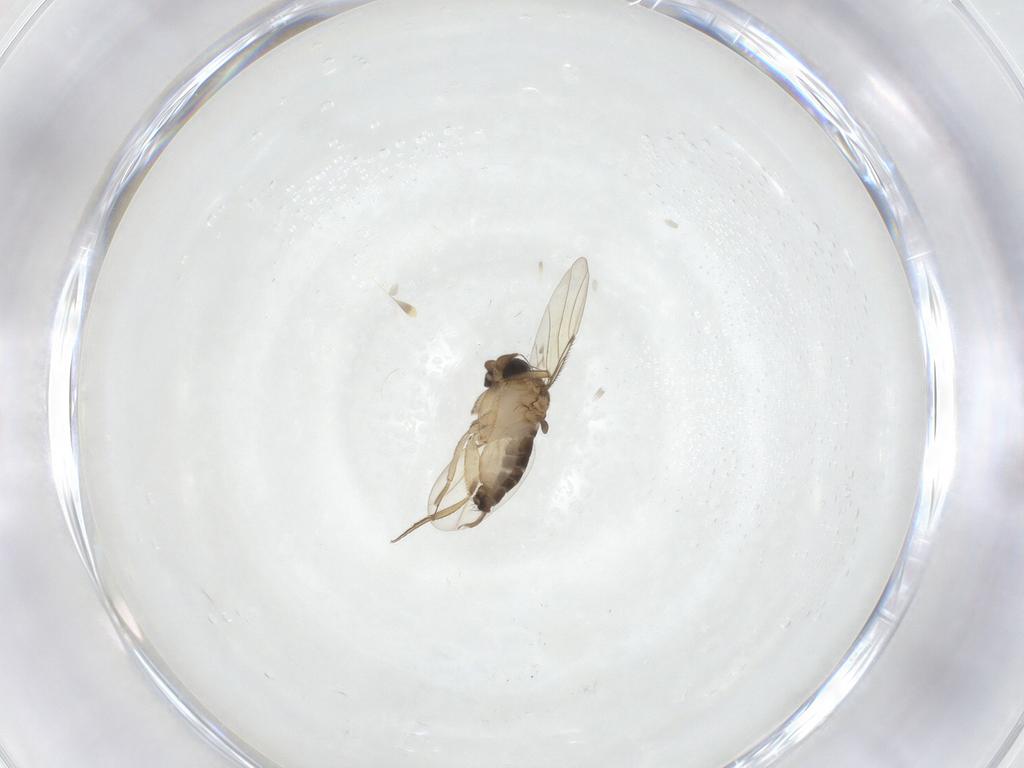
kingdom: Animalia
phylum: Arthropoda
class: Insecta
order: Diptera
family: Phoridae
